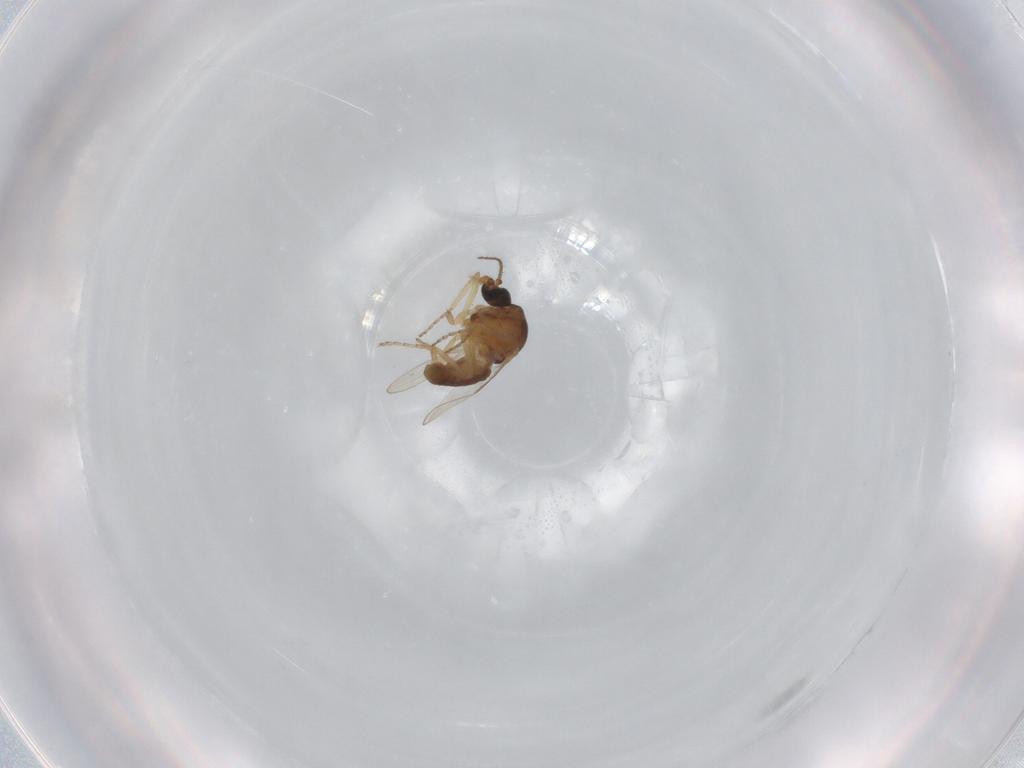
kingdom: Animalia
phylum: Arthropoda
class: Insecta
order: Diptera
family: Ceratopogonidae
